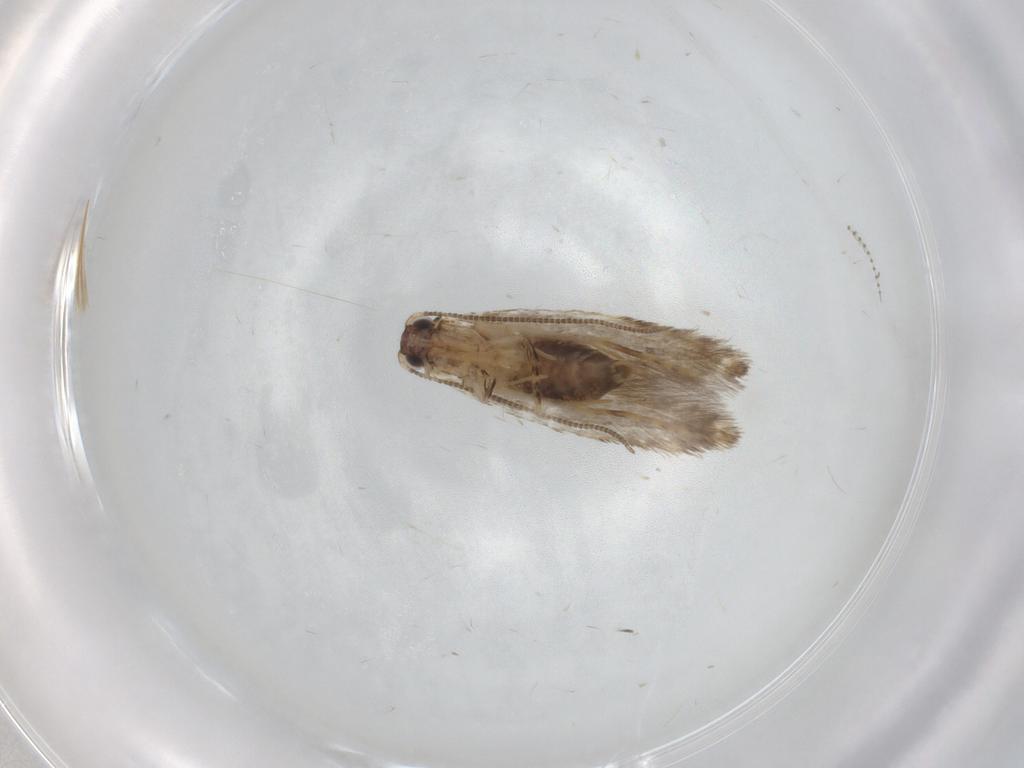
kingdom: Animalia
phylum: Arthropoda
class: Insecta
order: Lepidoptera
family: Tineidae
